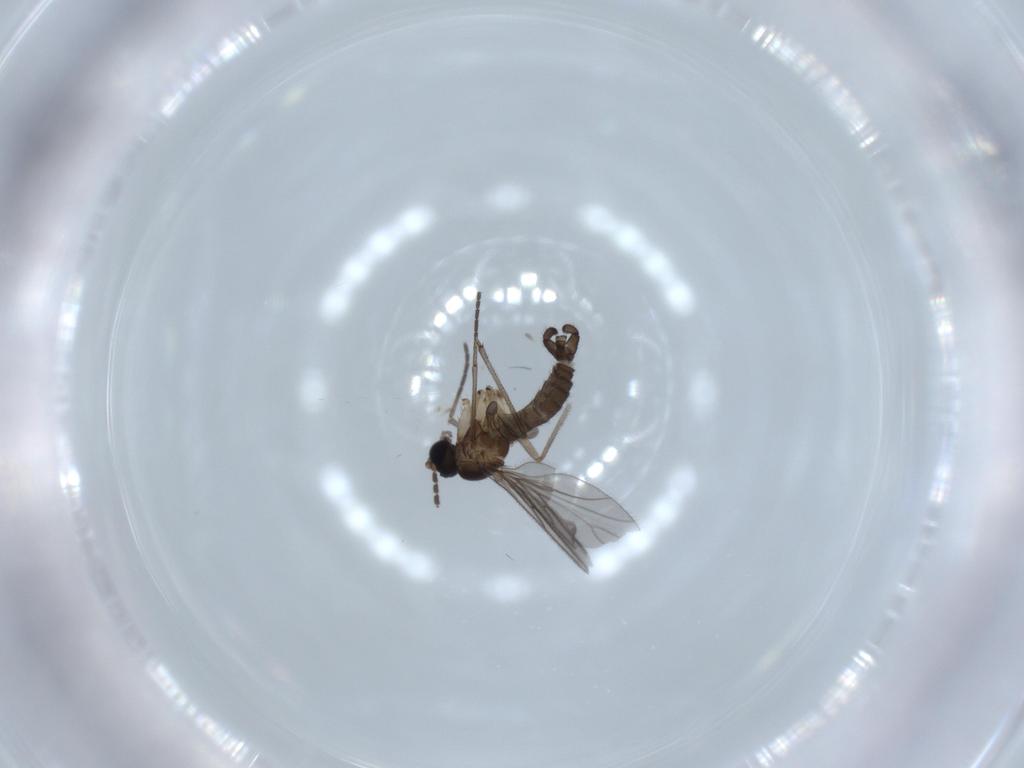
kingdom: Animalia
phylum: Arthropoda
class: Insecta
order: Diptera
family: Sciaridae
